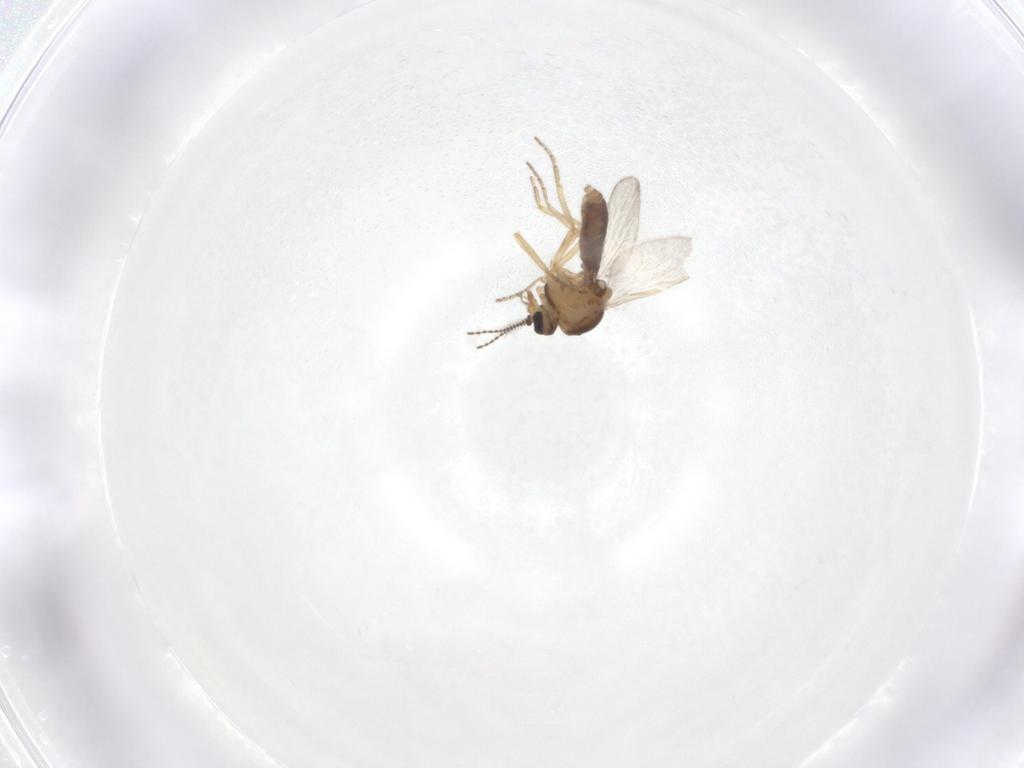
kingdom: Animalia
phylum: Arthropoda
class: Insecta
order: Diptera
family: Ceratopogonidae
